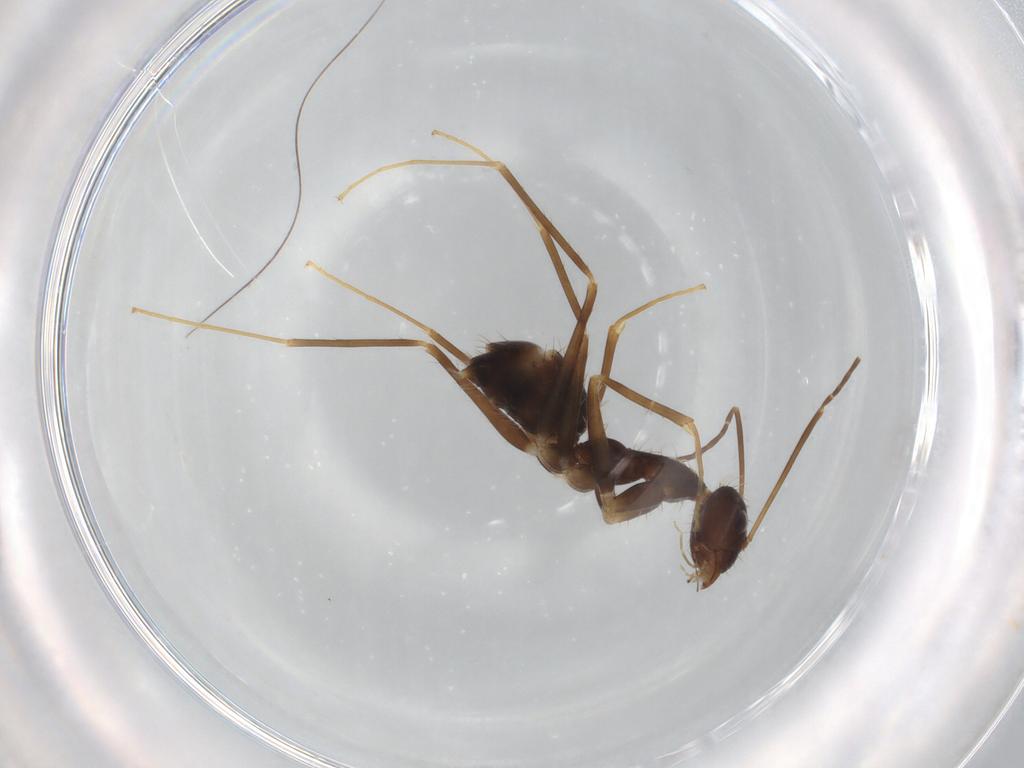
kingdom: Animalia
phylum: Arthropoda
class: Insecta
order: Hymenoptera
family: Formicidae
